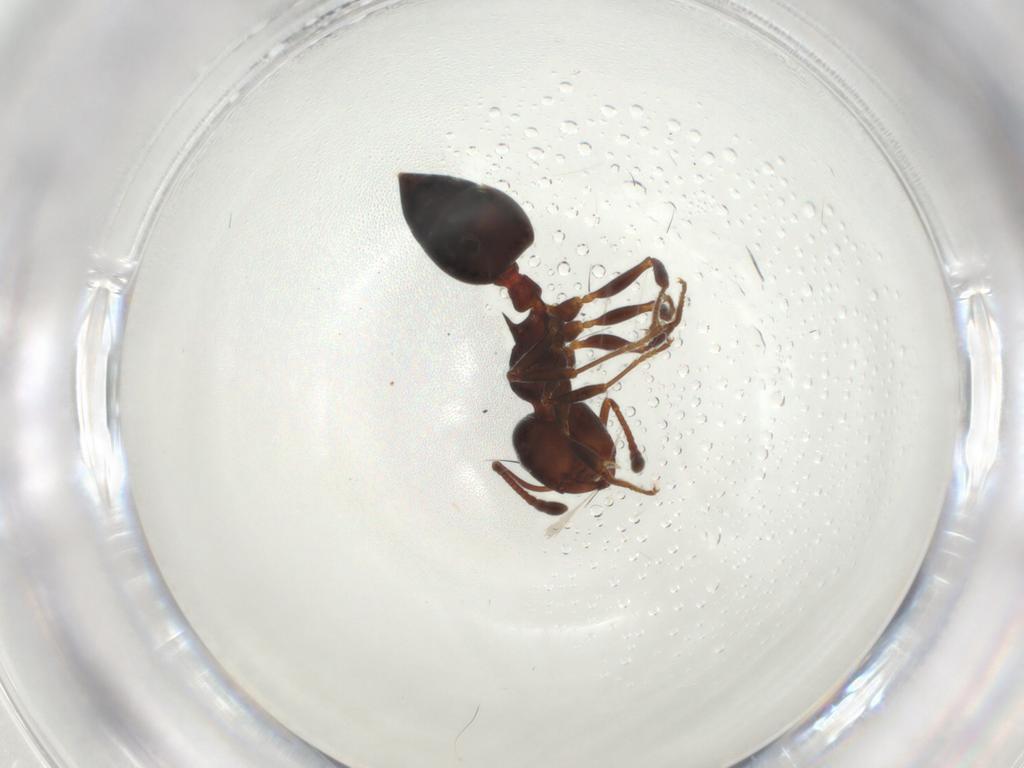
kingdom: Animalia
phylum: Arthropoda
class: Insecta
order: Hymenoptera
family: Formicidae
